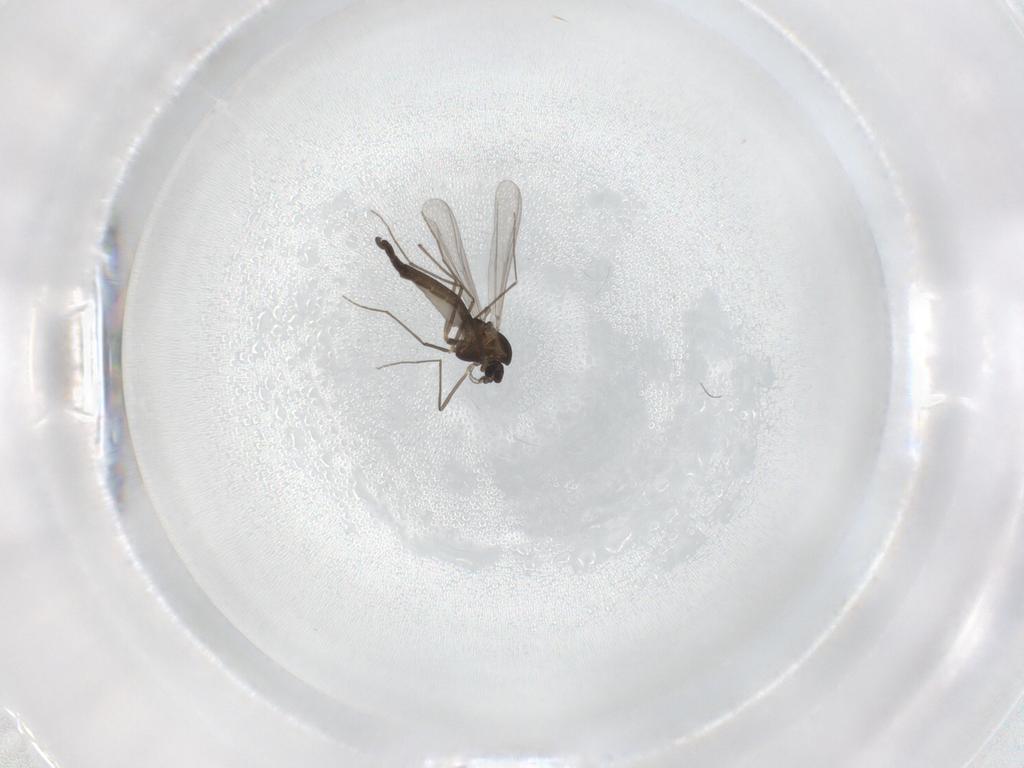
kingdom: Animalia
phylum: Arthropoda
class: Insecta
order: Diptera
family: Chironomidae
